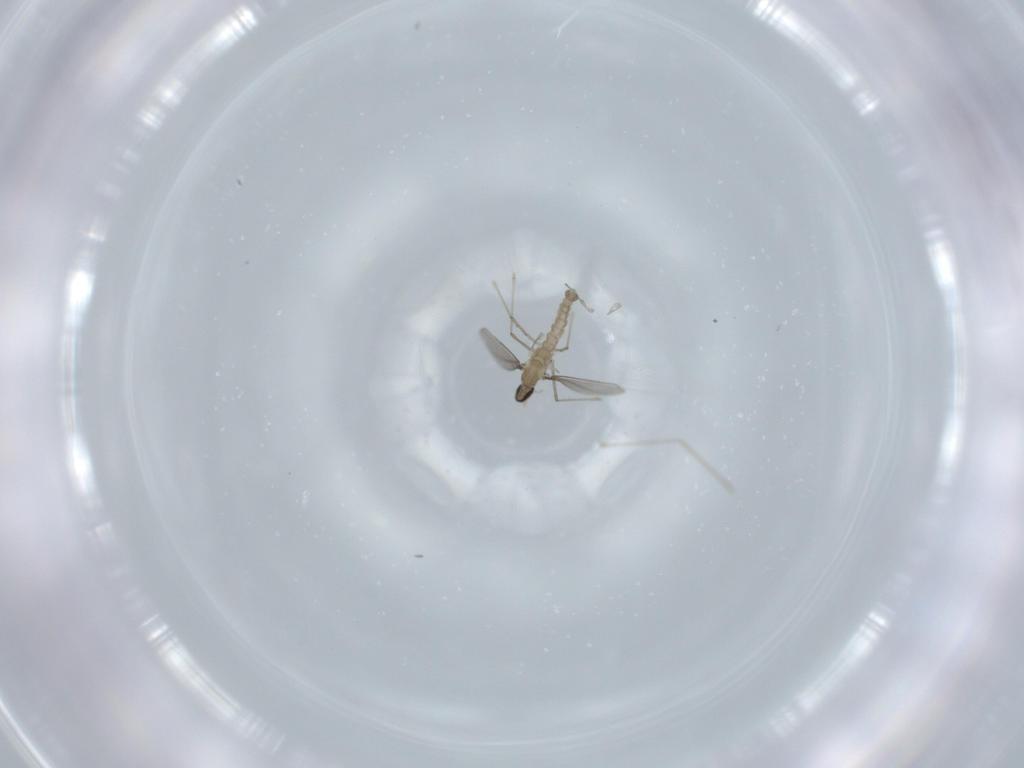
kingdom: Animalia
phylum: Arthropoda
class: Insecta
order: Diptera
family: Cecidomyiidae
